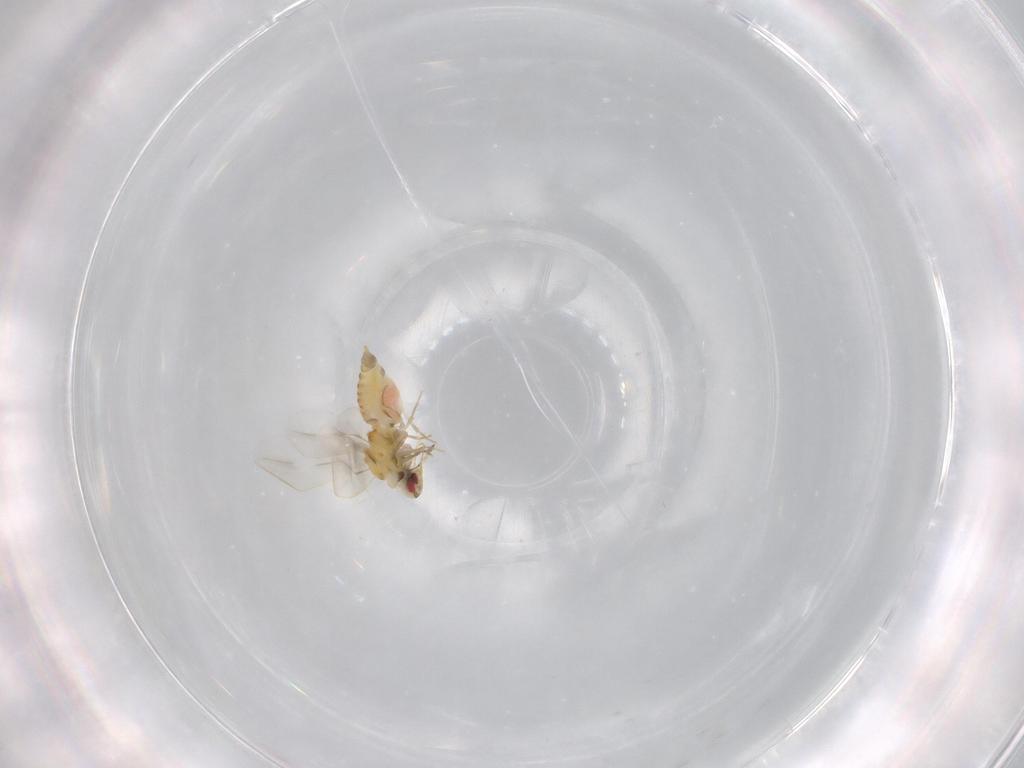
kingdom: Animalia
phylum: Arthropoda
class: Insecta
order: Hemiptera
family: Aleyrodidae
